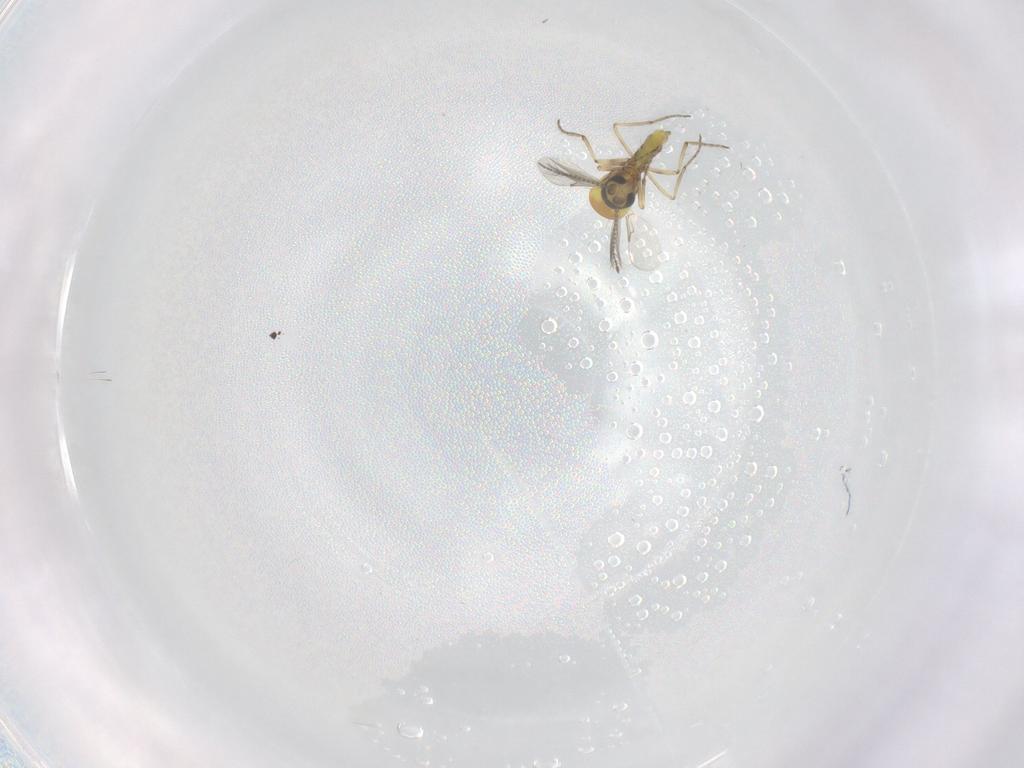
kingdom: Animalia
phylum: Arthropoda
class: Insecta
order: Diptera
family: Ceratopogonidae
